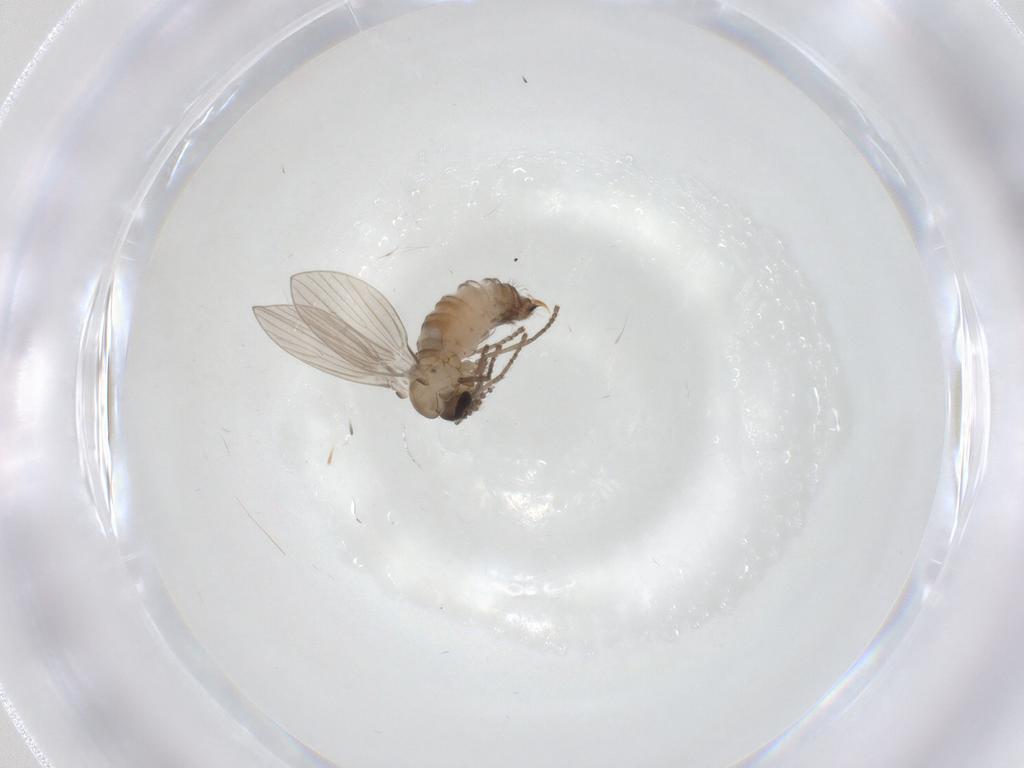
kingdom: Animalia
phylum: Arthropoda
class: Insecta
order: Diptera
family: Psychodidae
